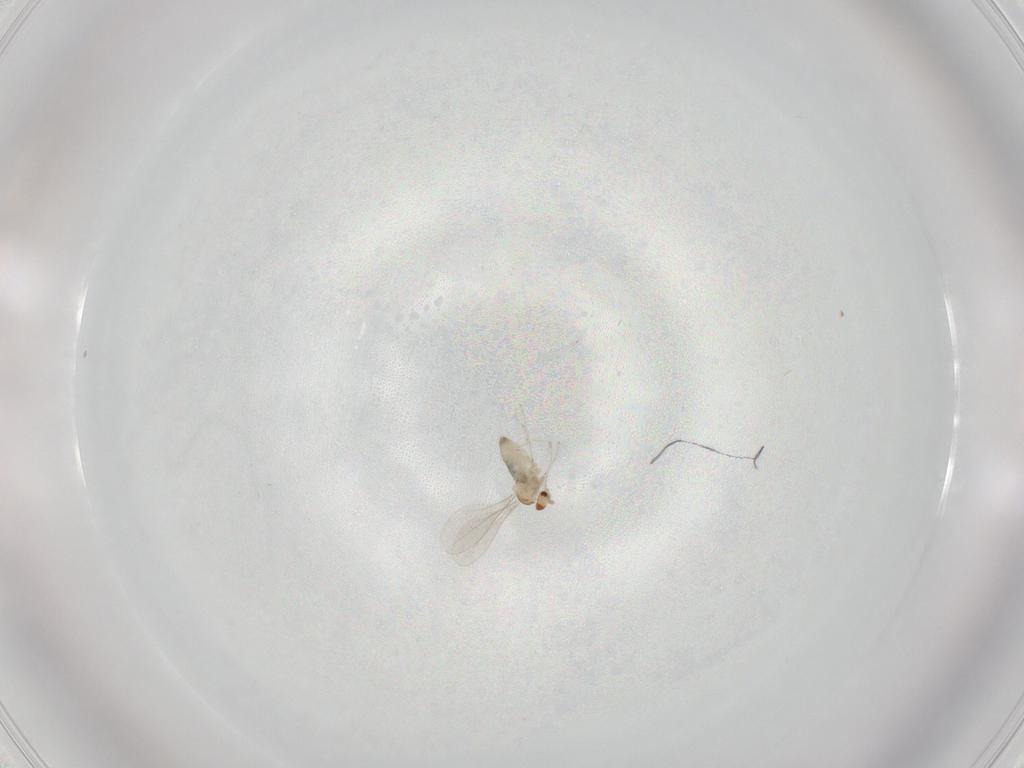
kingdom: Animalia
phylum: Arthropoda
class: Insecta
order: Diptera
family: Cecidomyiidae
